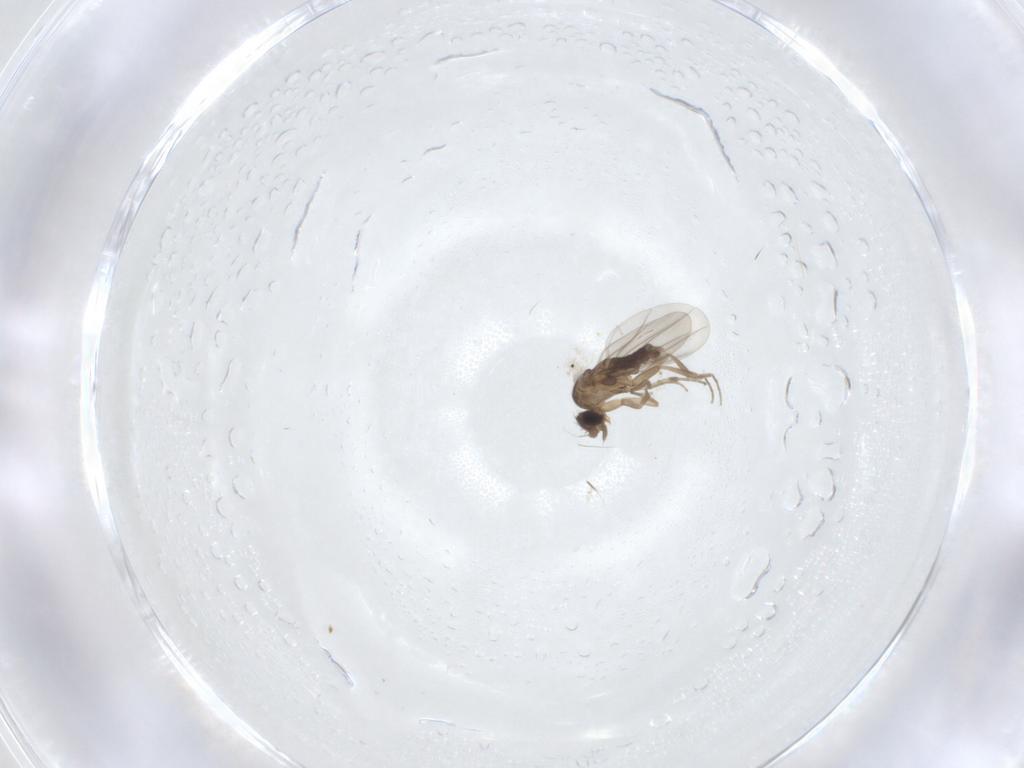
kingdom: Animalia
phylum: Arthropoda
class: Insecta
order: Diptera
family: Phoridae
